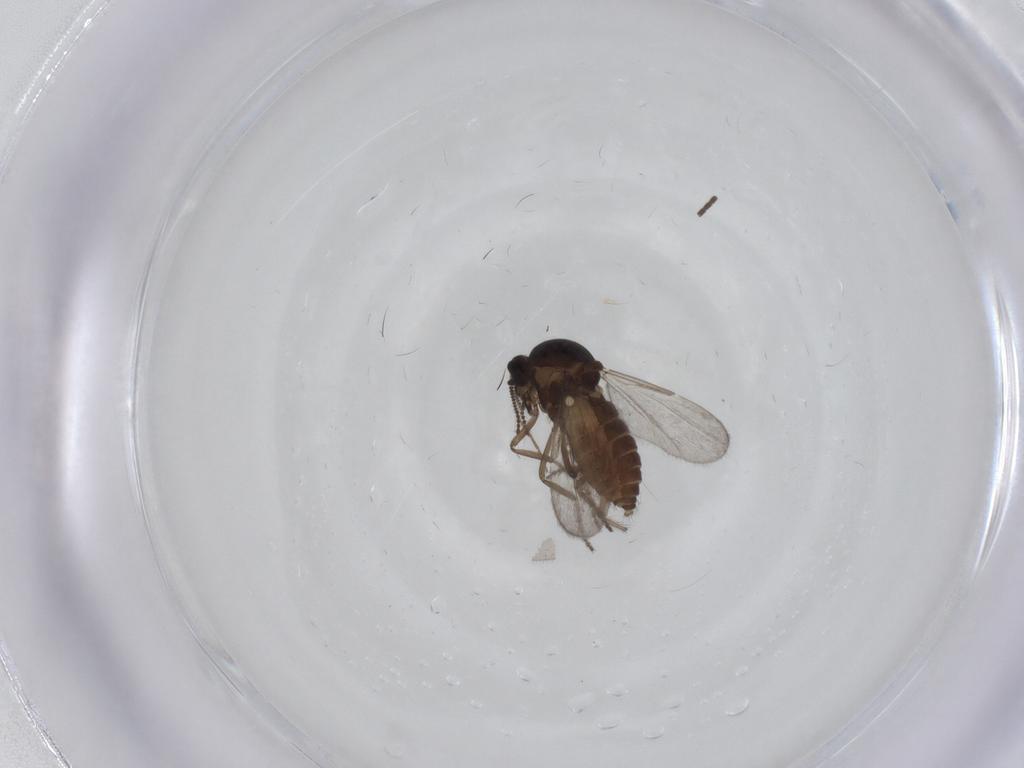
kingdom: Animalia
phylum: Arthropoda
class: Insecta
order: Diptera
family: Ceratopogonidae
